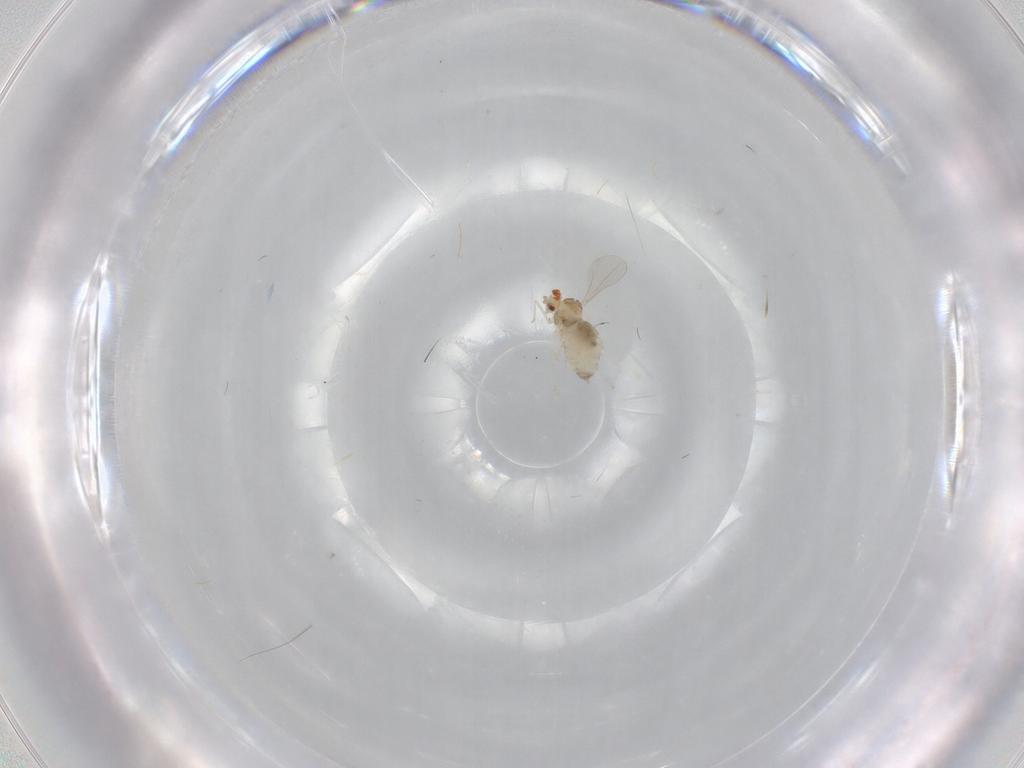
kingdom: Animalia
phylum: Arthropoda
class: Insecta
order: Diptera
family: Cecidomyiidae
